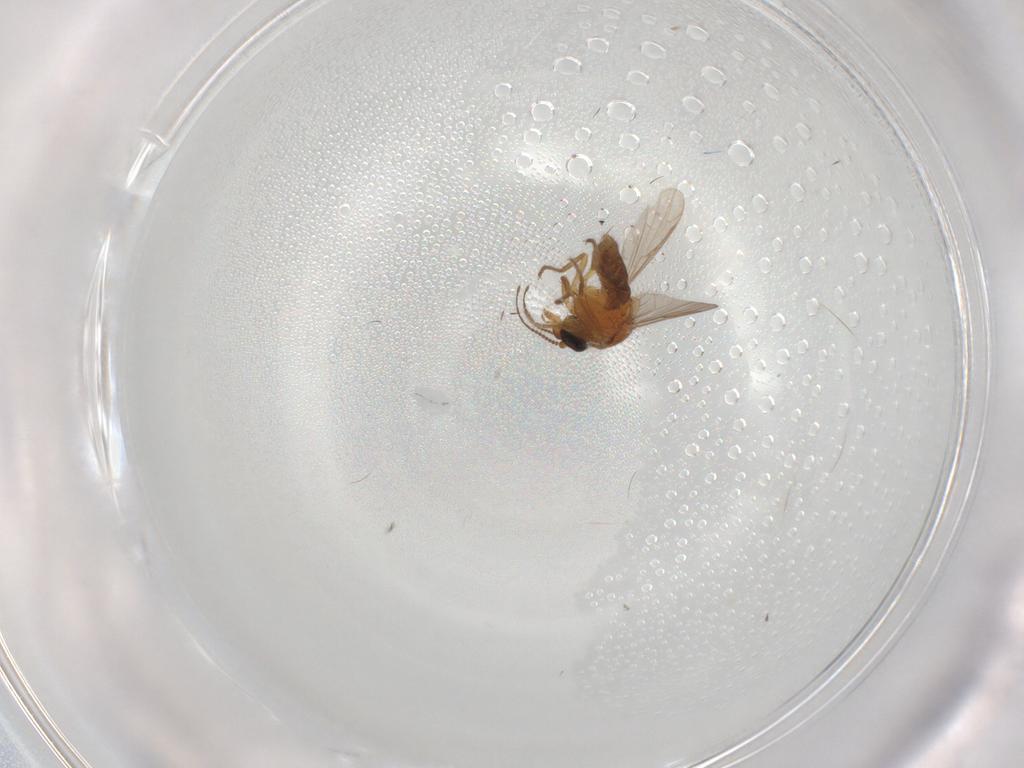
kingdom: Animalia
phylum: Arthropoda
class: Insecta
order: Diptera
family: Ceratopogonidae
